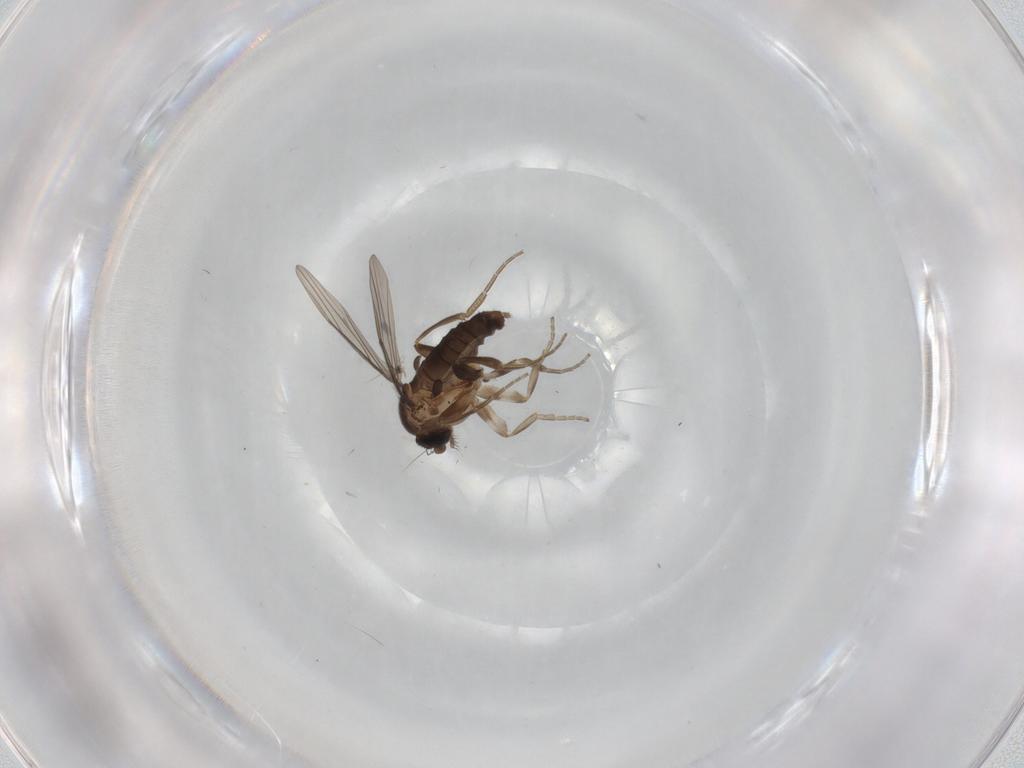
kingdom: Animalia
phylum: Arthropoda
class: Insecta
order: Diptera
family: Phoridae
